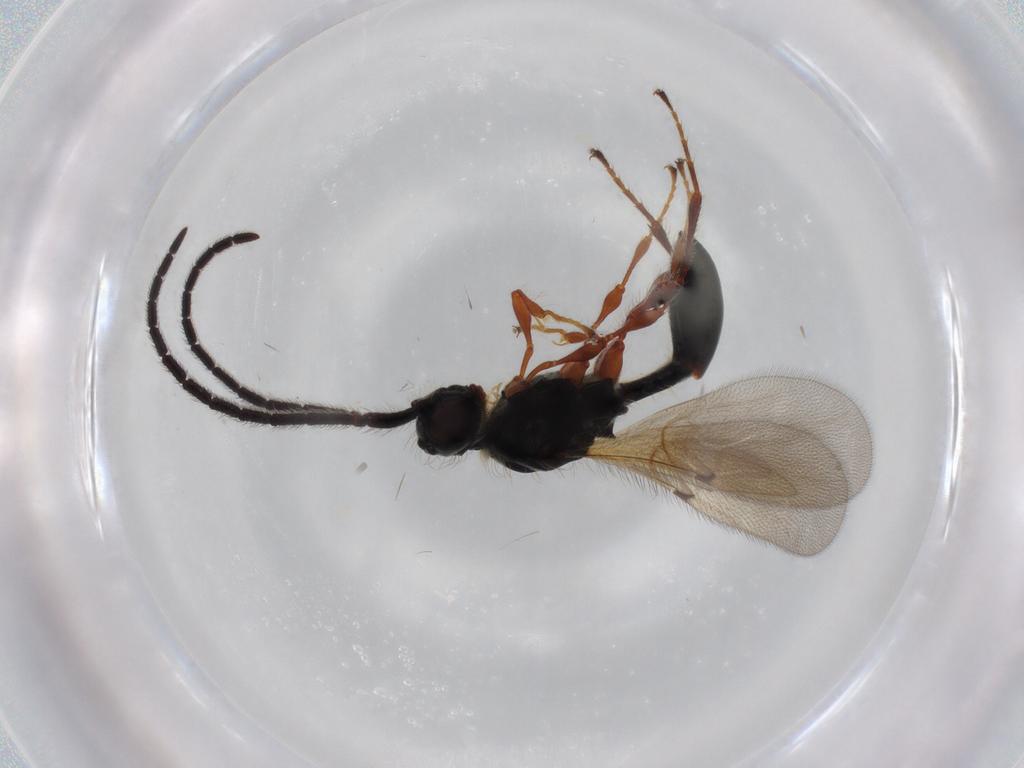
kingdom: Animalia
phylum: Arthropoda
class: Insecta
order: Hymenoptera
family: Diapriidae
